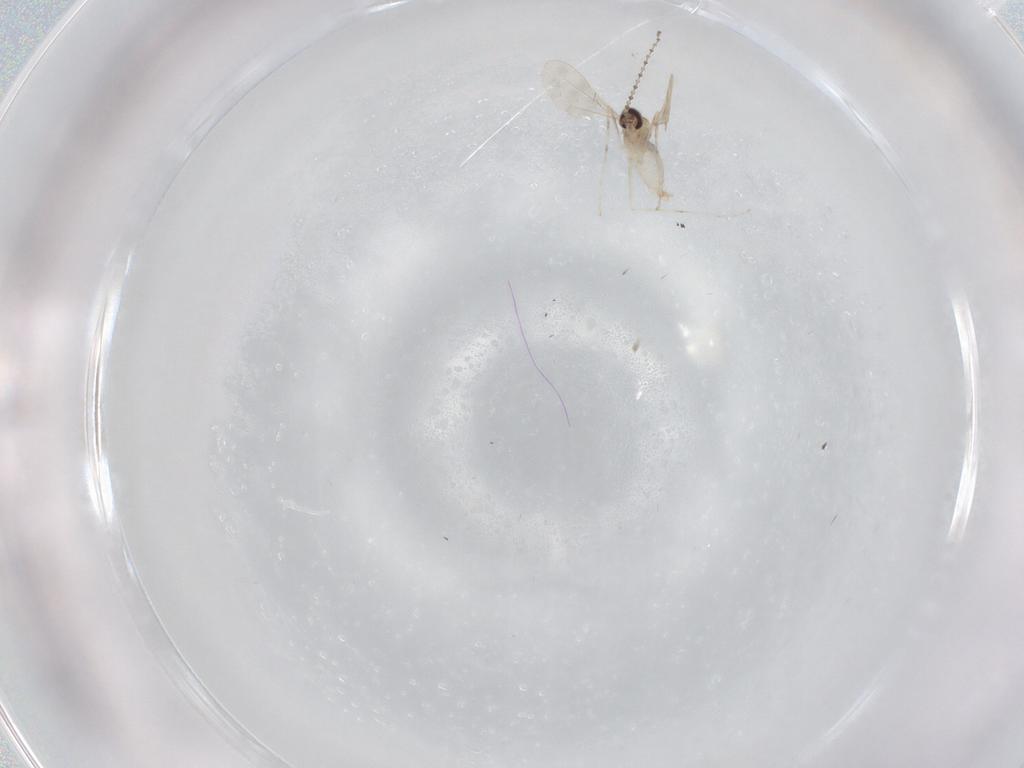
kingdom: Animalia
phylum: Arthropoda
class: Insecta
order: Diptera
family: Cecidomyiidae
